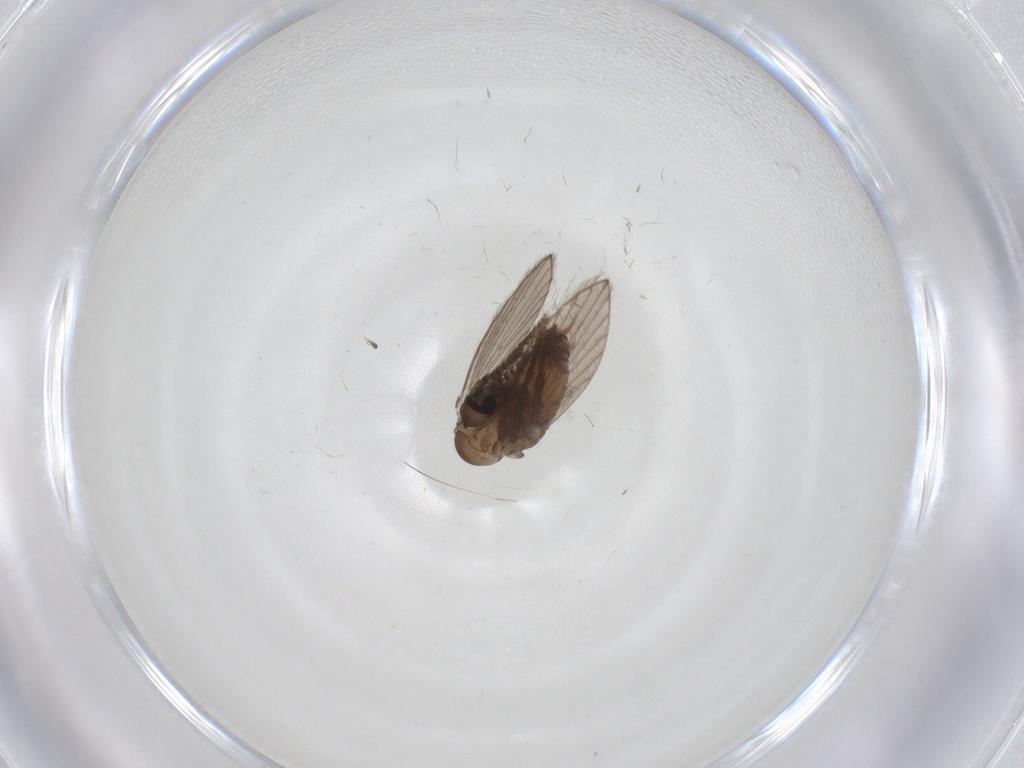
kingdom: Animalia
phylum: Arthropoda
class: Insecta
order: Diptera
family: Psychodidae
